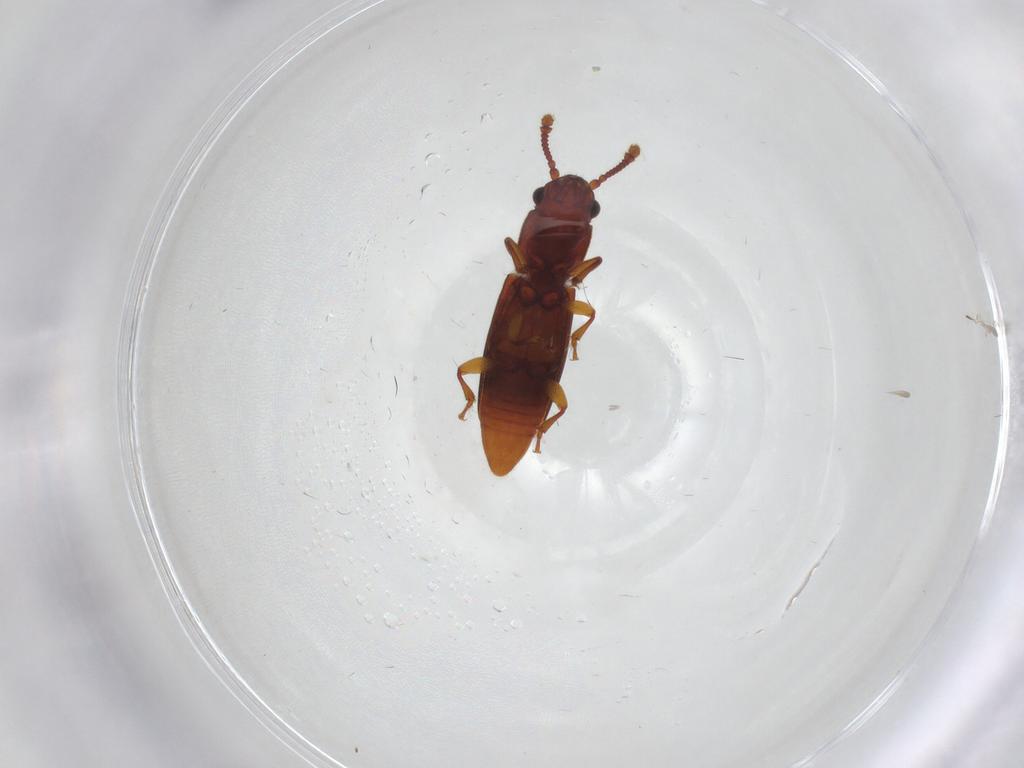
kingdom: Animalia
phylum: Arthropoda
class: Insecta
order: Coleoptera
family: Monotomidae
